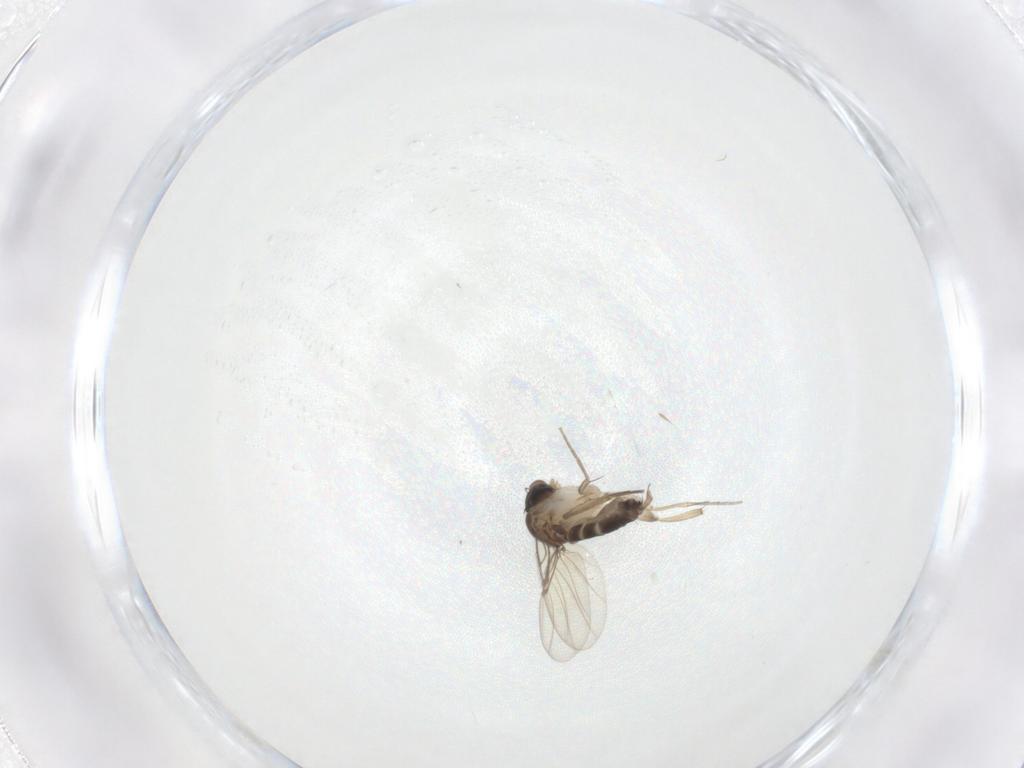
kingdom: Animalia
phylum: Arthropoda
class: Insecta
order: Diptera
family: Phoridae
